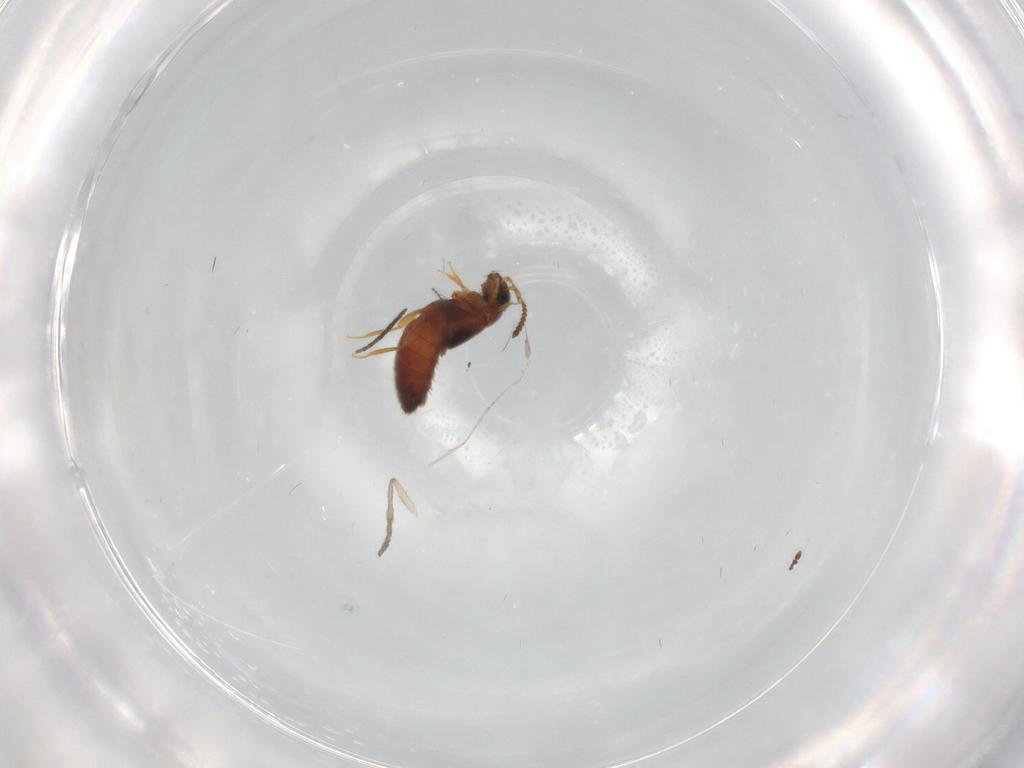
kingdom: Animalia
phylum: Arthropoda
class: Insecta
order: Coleoptera
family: Staphylinidae
